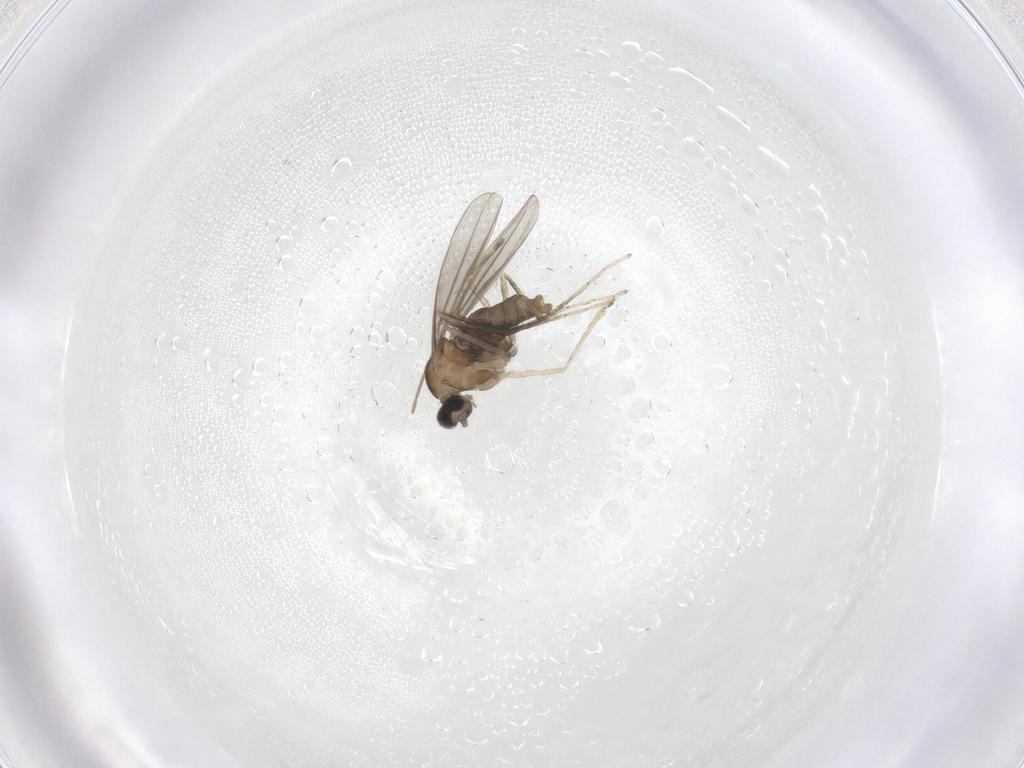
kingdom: Animalia
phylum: Arthropoda
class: Insecta
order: Diptera
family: Cecidomyiidae
